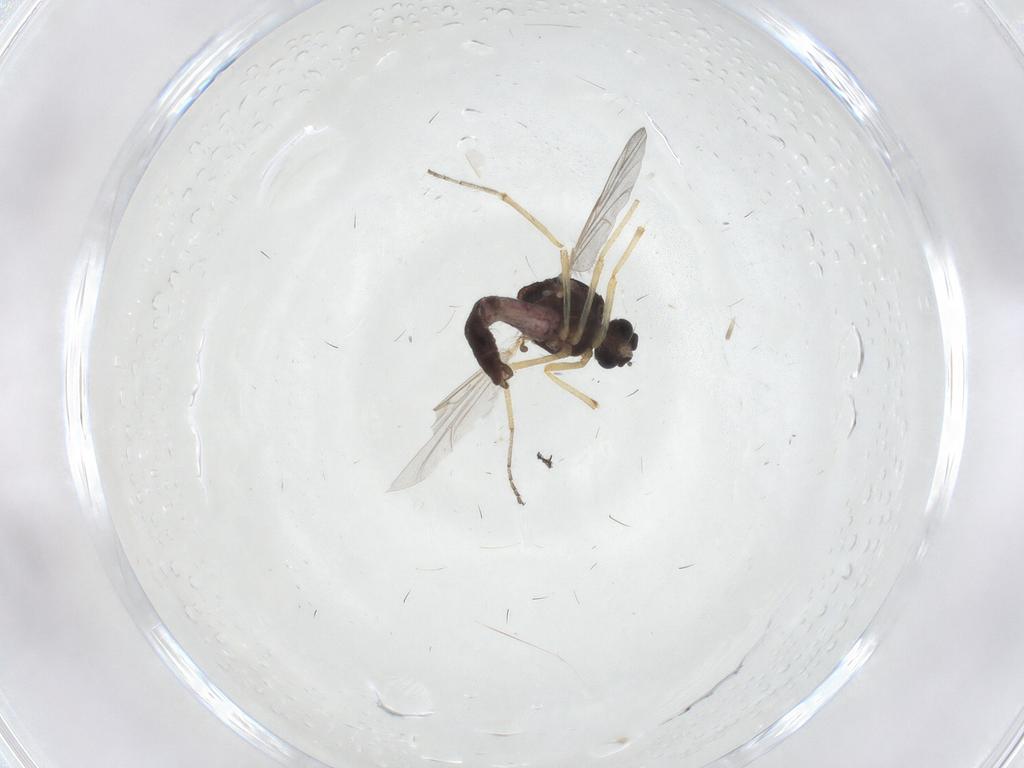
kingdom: Animalia
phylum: Arthropoda
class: Insecta
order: Diptera
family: Ceratopogonidae
